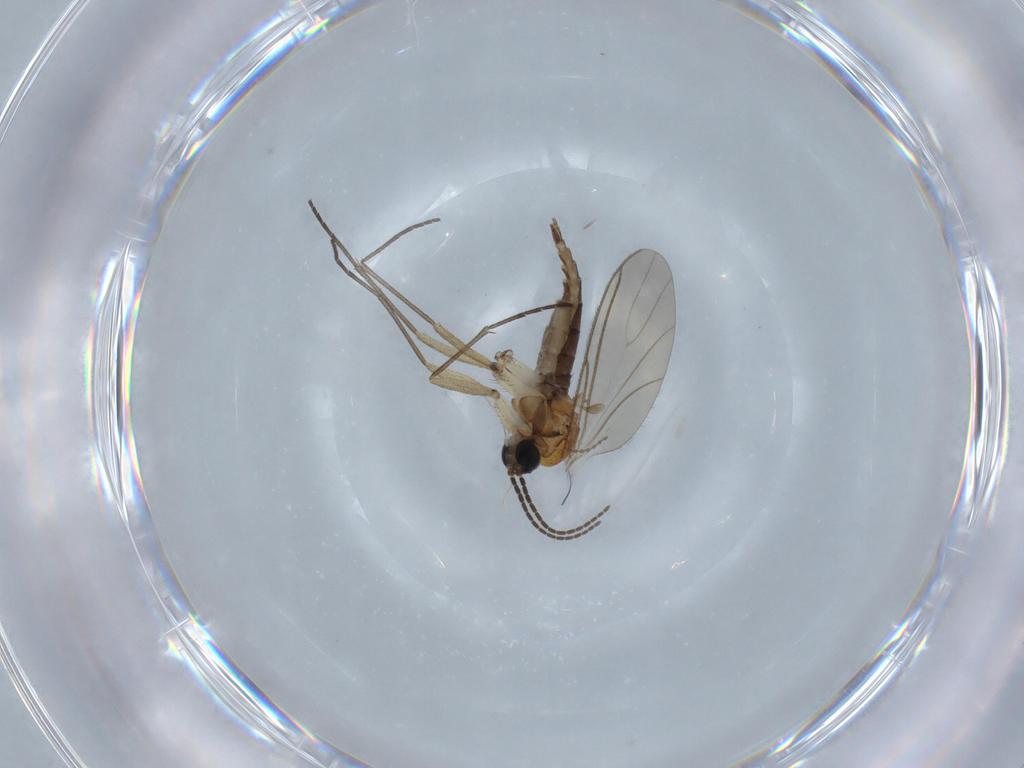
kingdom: Animalia
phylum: Arthropoda
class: Insecta
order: Diptera
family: Sciaridae
